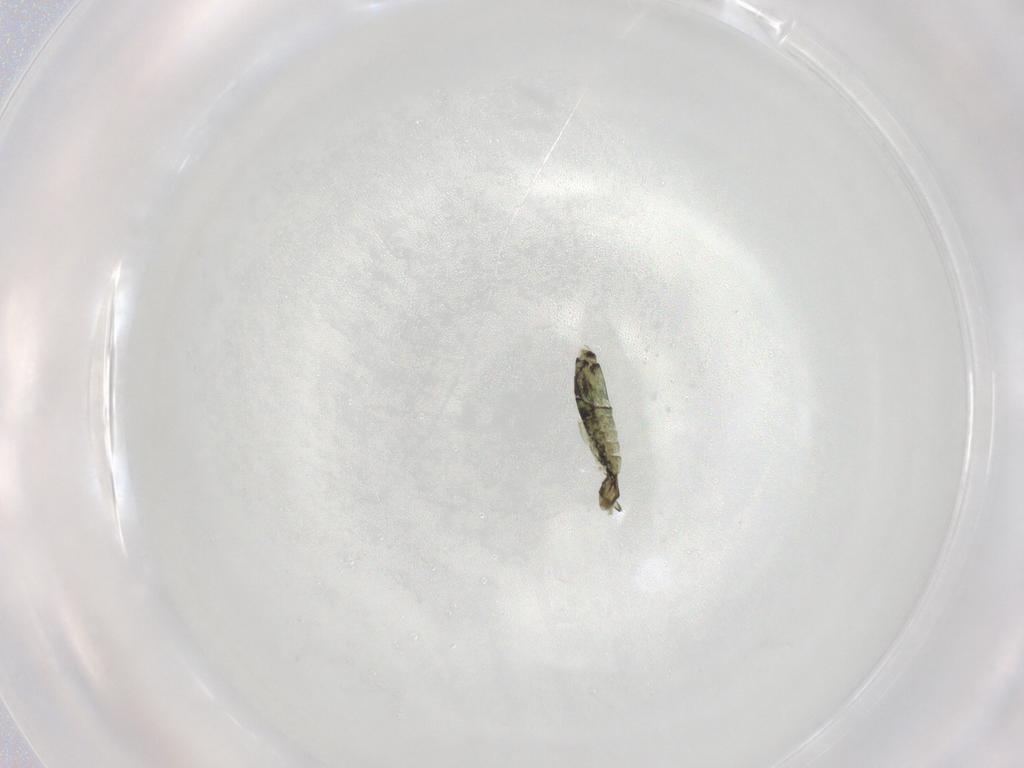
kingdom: Animalia
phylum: Arthropoda
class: Collembola
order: Entomobryomorpha
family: Entomobryidae
